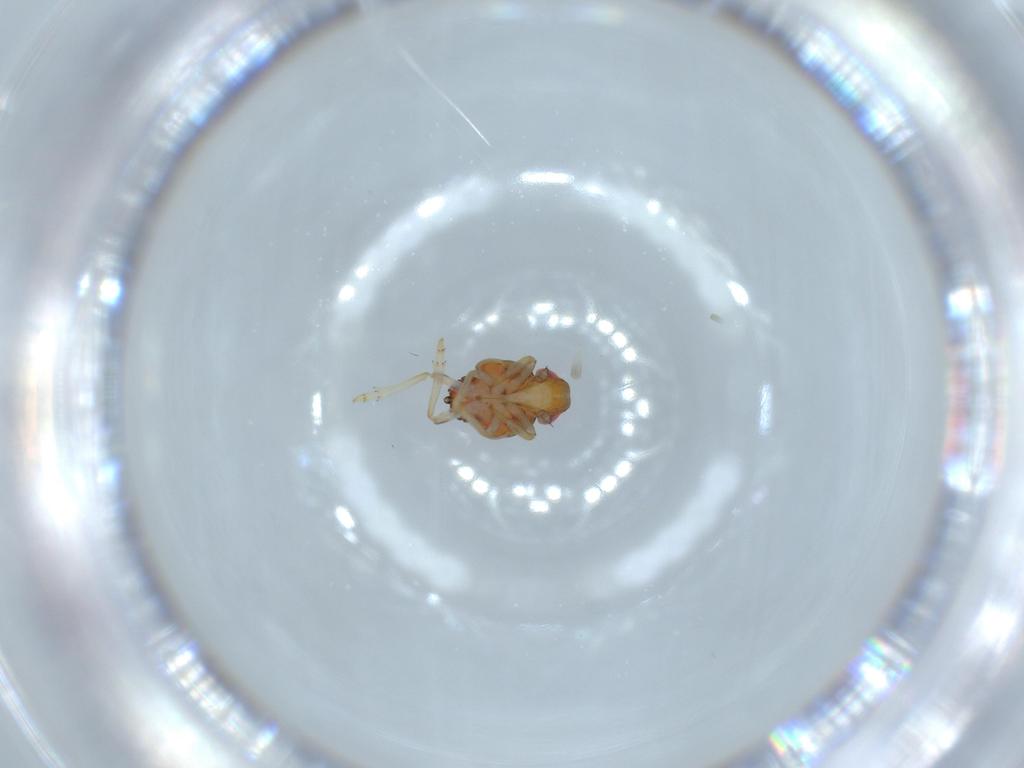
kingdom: Animalia
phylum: Arthropoda
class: Insecta
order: Hemiptera
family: Issidae
